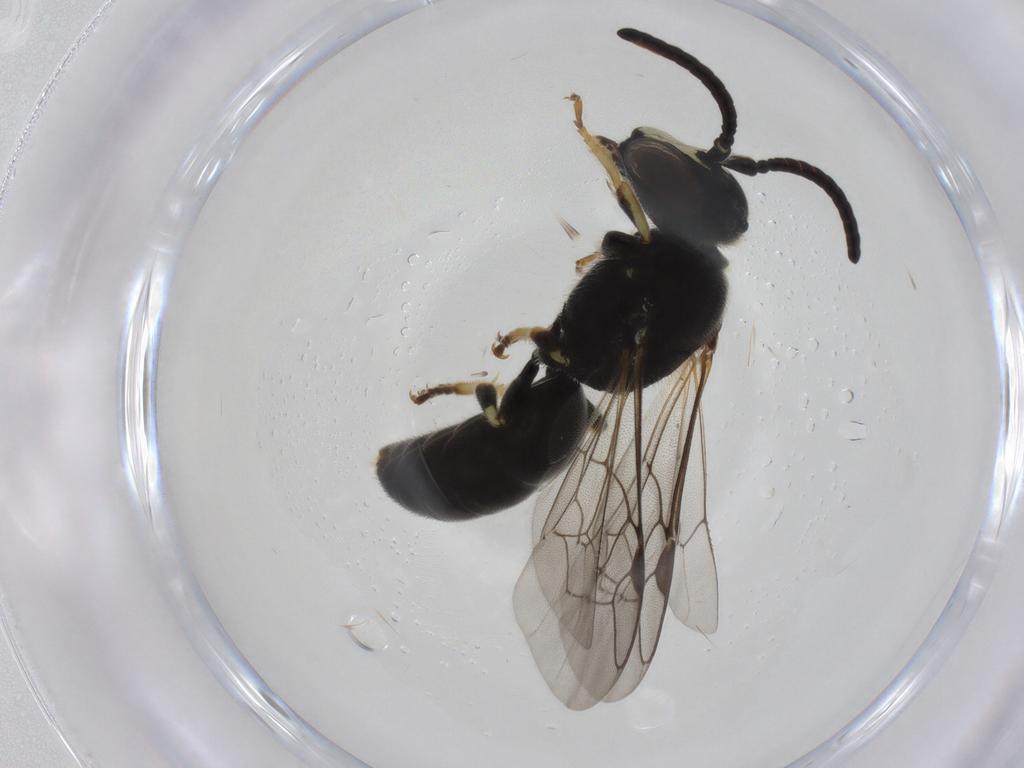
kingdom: Animalia
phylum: Arthropoda
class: Insecta
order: Hymenoptera
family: Colletidae
